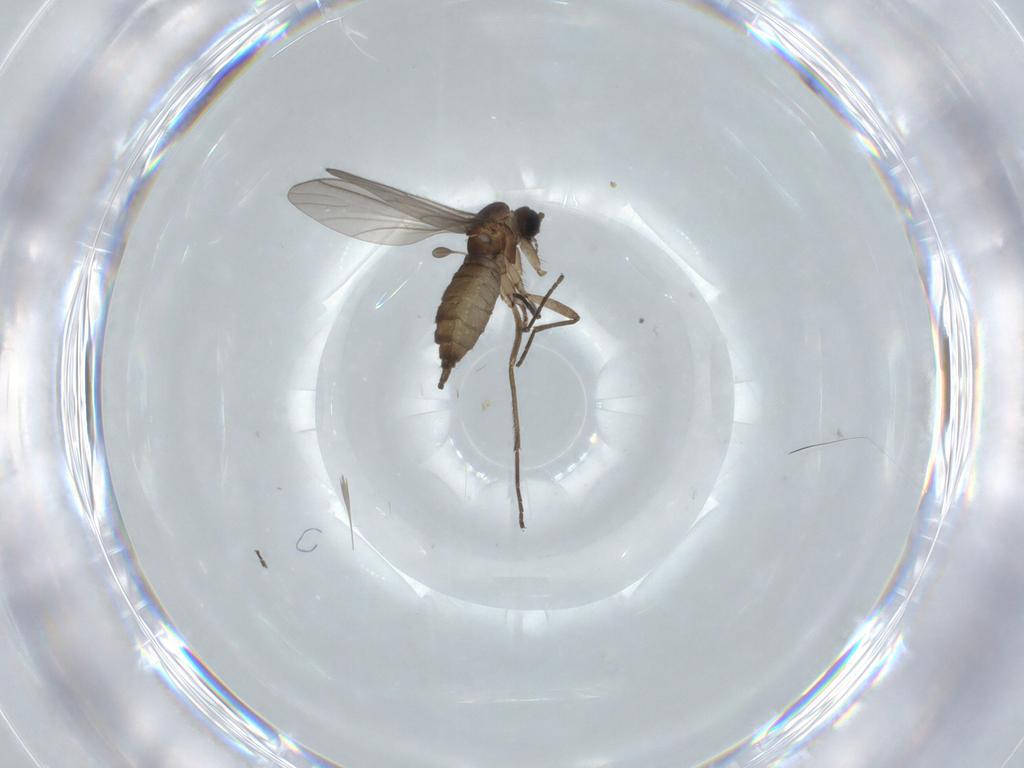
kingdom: Animalia
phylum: Arthropoda
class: Insecta
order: Diptera
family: Sciaridae
